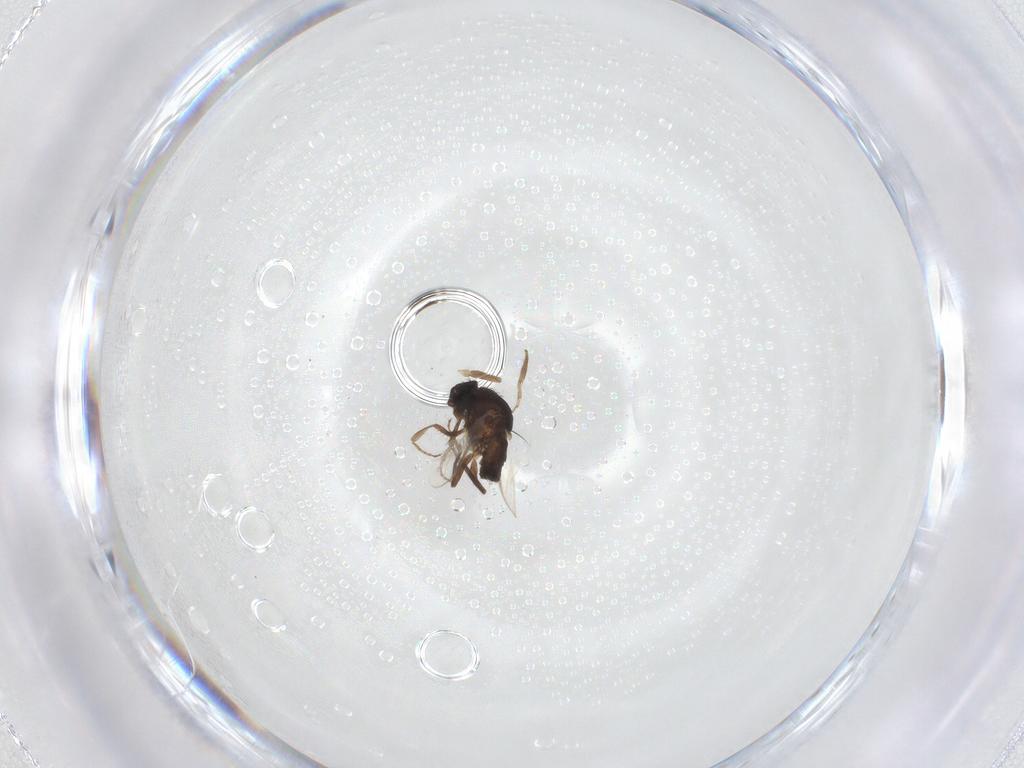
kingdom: Animalia
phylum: Arthropoda
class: Insecta
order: Diptera
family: Sphaeroceridae
